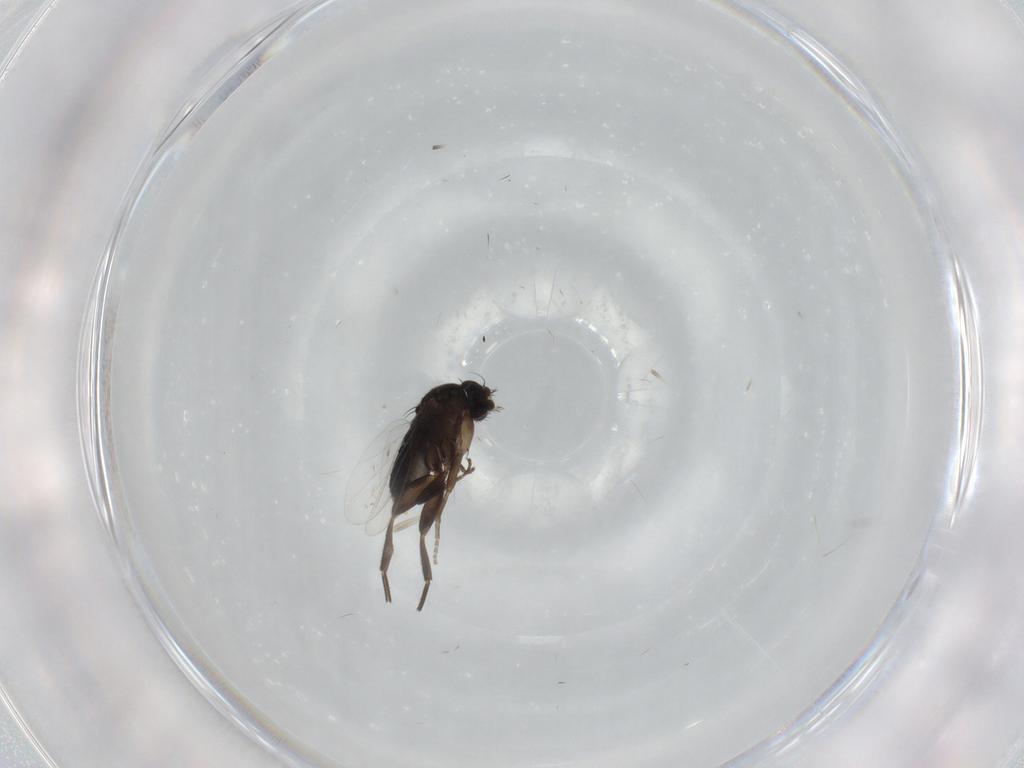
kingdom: Animalia
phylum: Arthropoda
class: Insecta
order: Diptera
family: Phoridae
